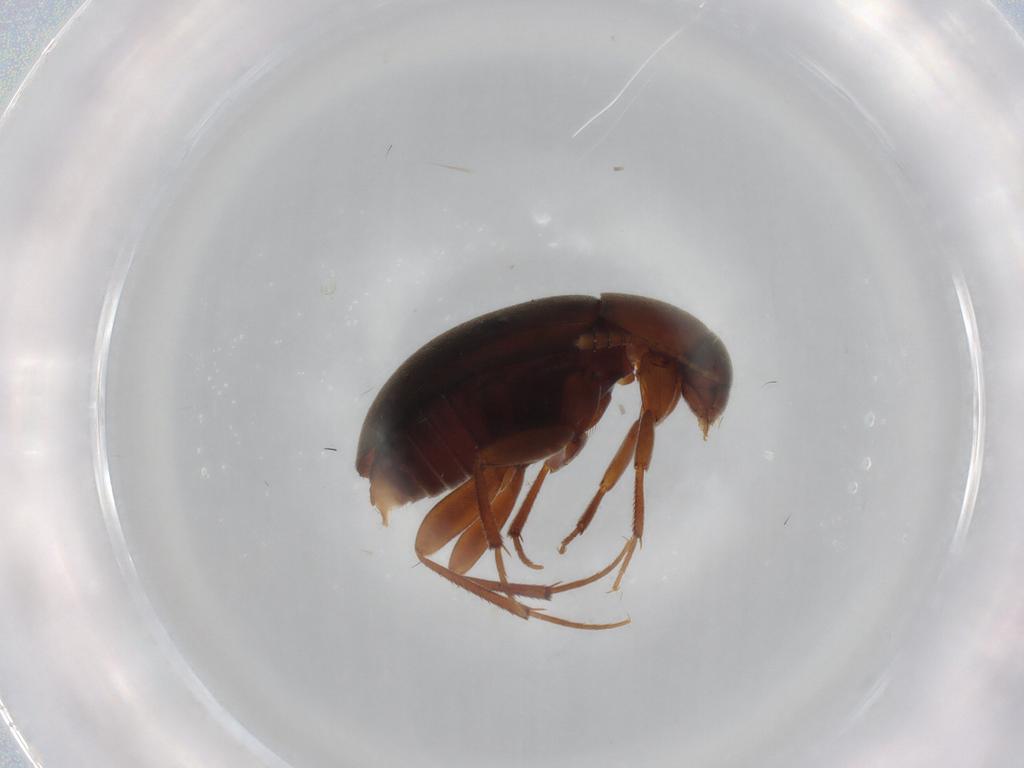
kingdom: Animalia
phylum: Arthropoda
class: Insecta
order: Coleoptera
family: Leiodidae
